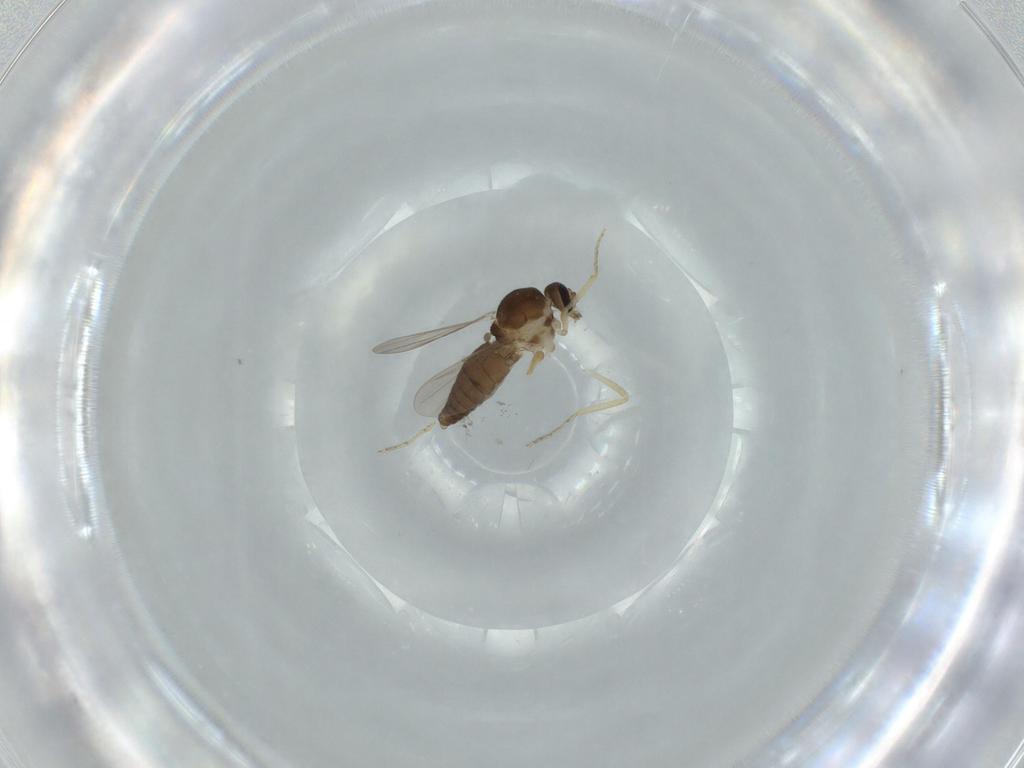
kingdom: Animalia
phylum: Arthropoda
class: Insecta
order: Diptera
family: Ceratopogonidae
